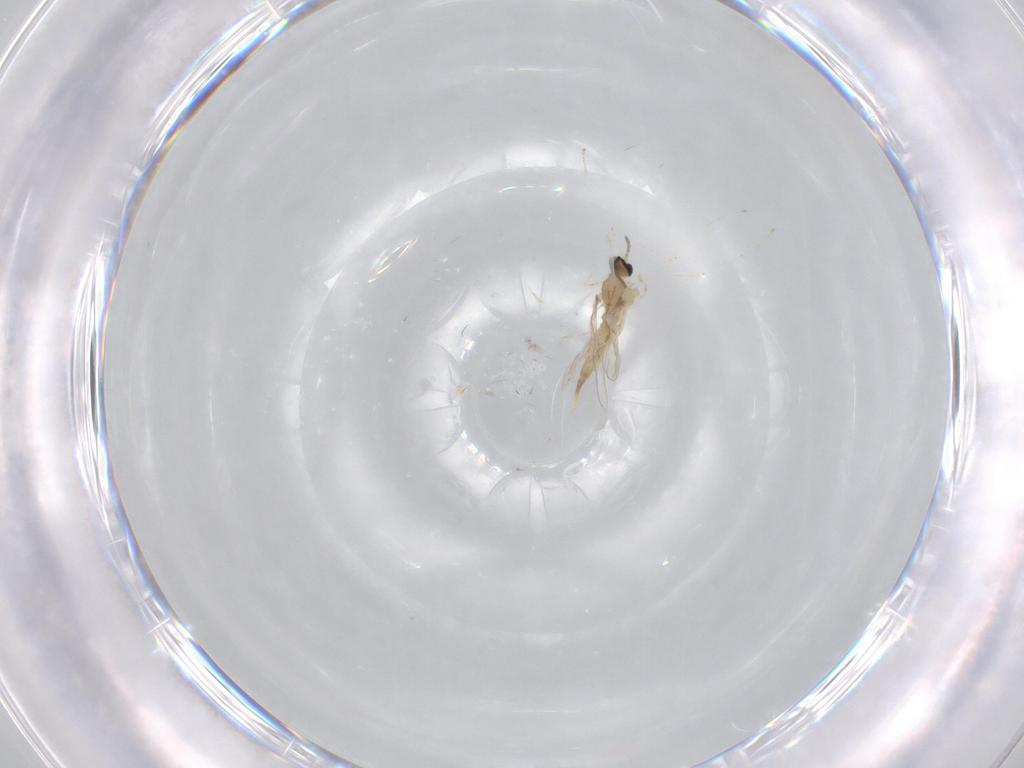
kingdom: Animalia
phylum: Arthropoda
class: Insecta
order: Diptera
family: Cecidomyiidae
